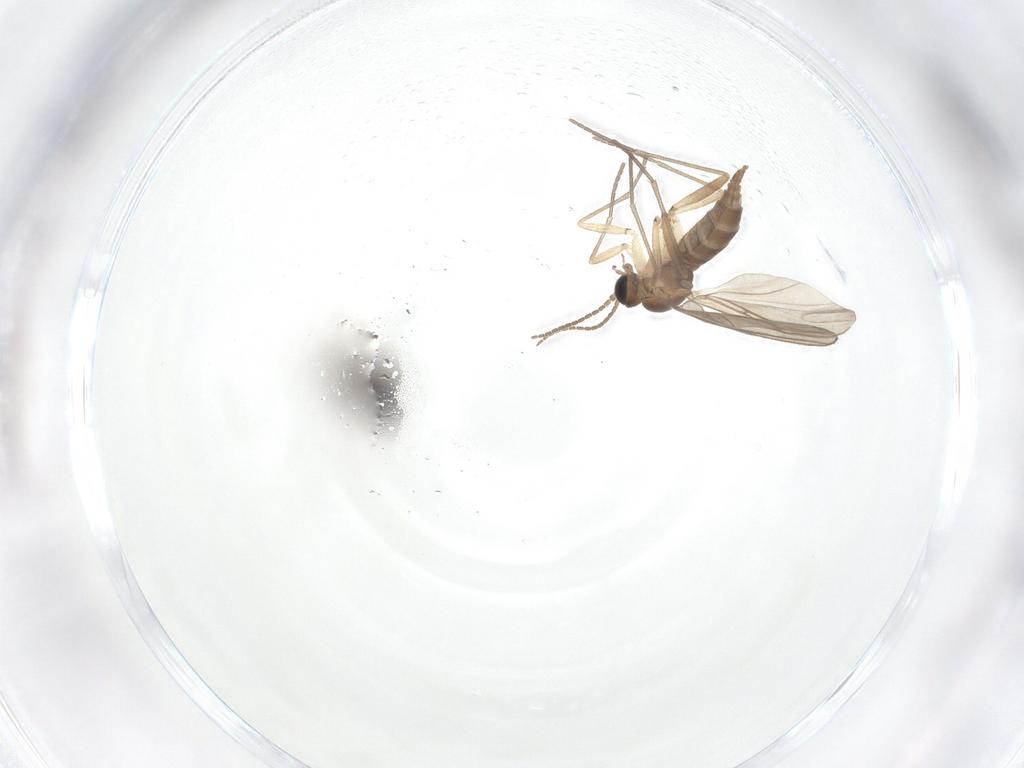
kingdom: Animalia
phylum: Arthropoda
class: Insecta
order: Diptera
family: Sciaridae
